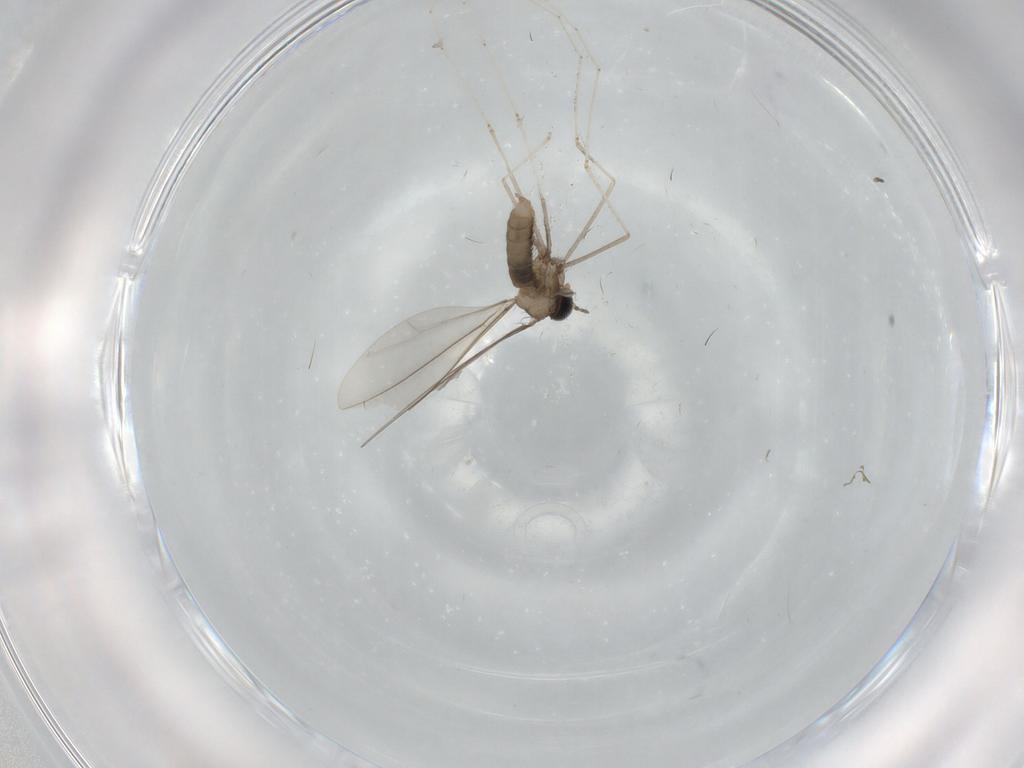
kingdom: Animalia
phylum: Arthropoda
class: Insecta
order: Diptera
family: Cecidomyiidae
